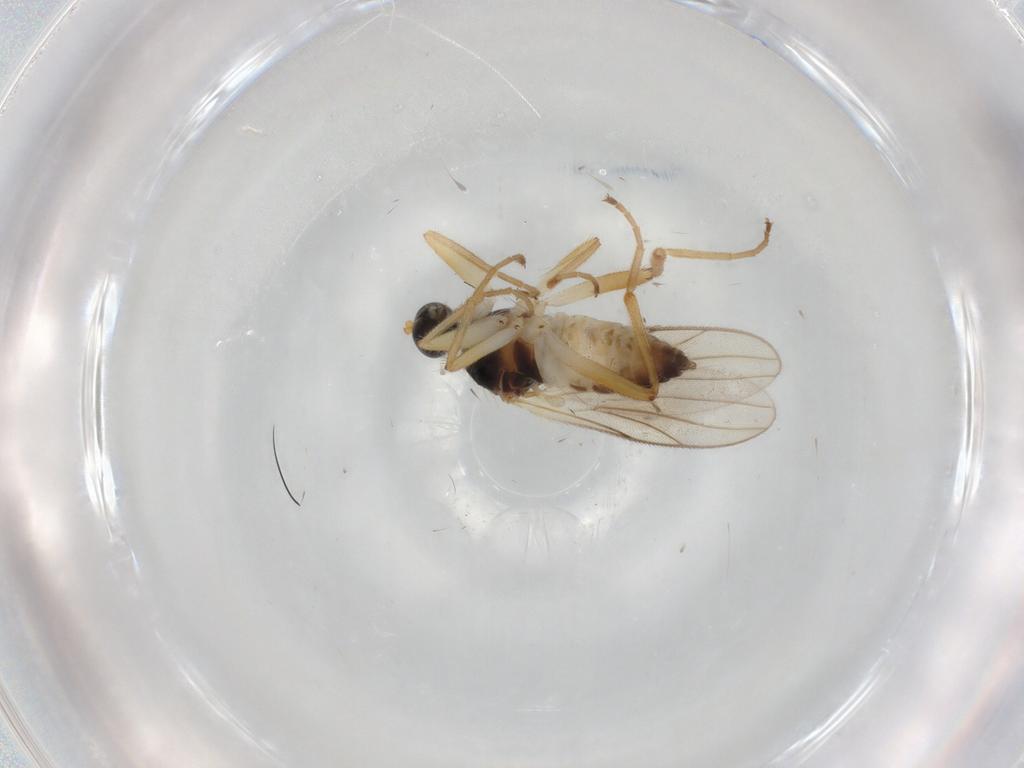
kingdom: Animalia
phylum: Arthropoda
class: Insecta
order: Diptera
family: Hybotidae
